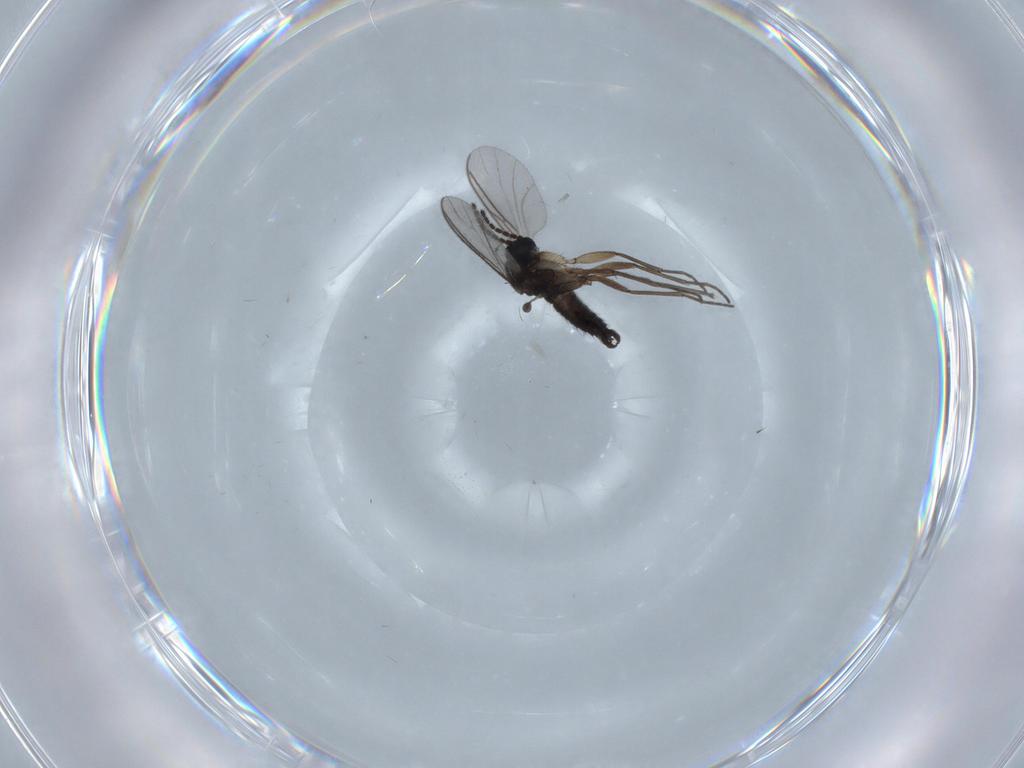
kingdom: Animalia
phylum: Arthropoda
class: Insecta
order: Diptera
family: Sciaridae
